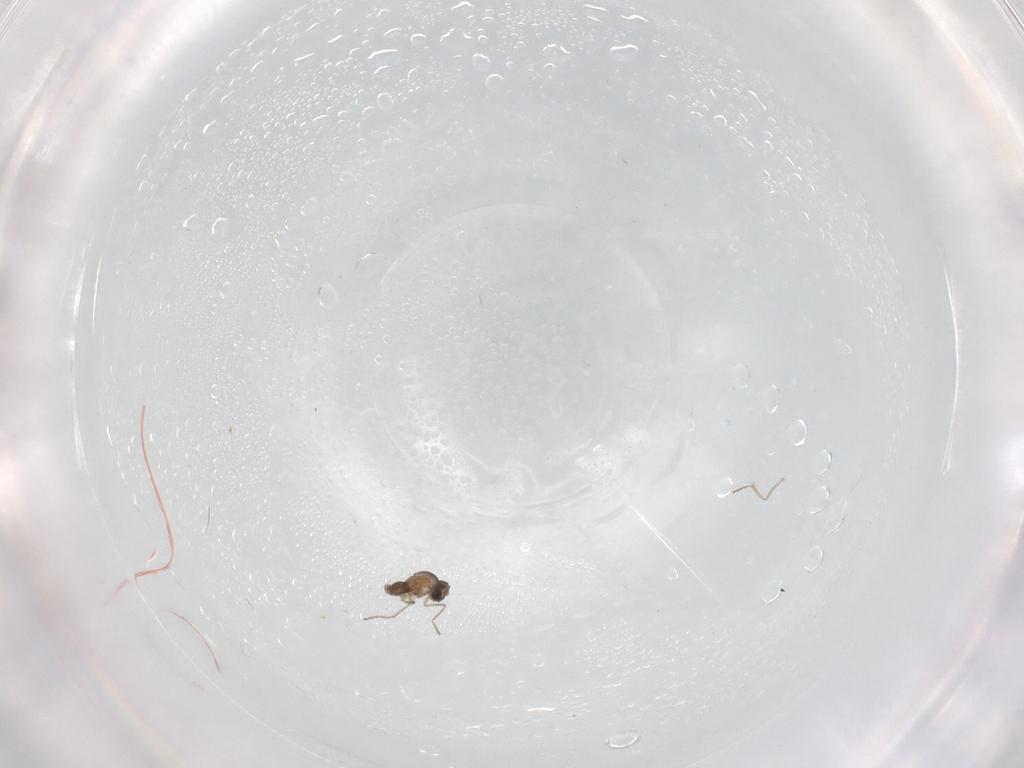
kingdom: Animalia
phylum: Arthropoda
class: Insecta
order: Diptera
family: Cecidomyiidae
